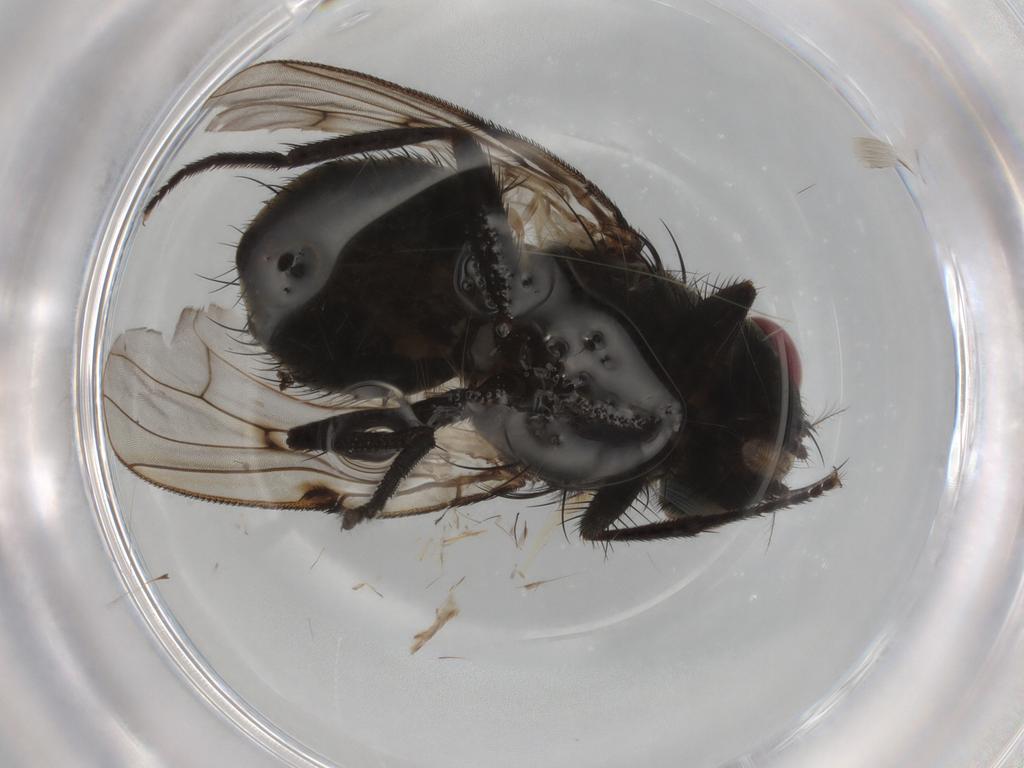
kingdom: Animalia
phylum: Arthropoda
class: Insecta
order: Diptera
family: Muscidae
